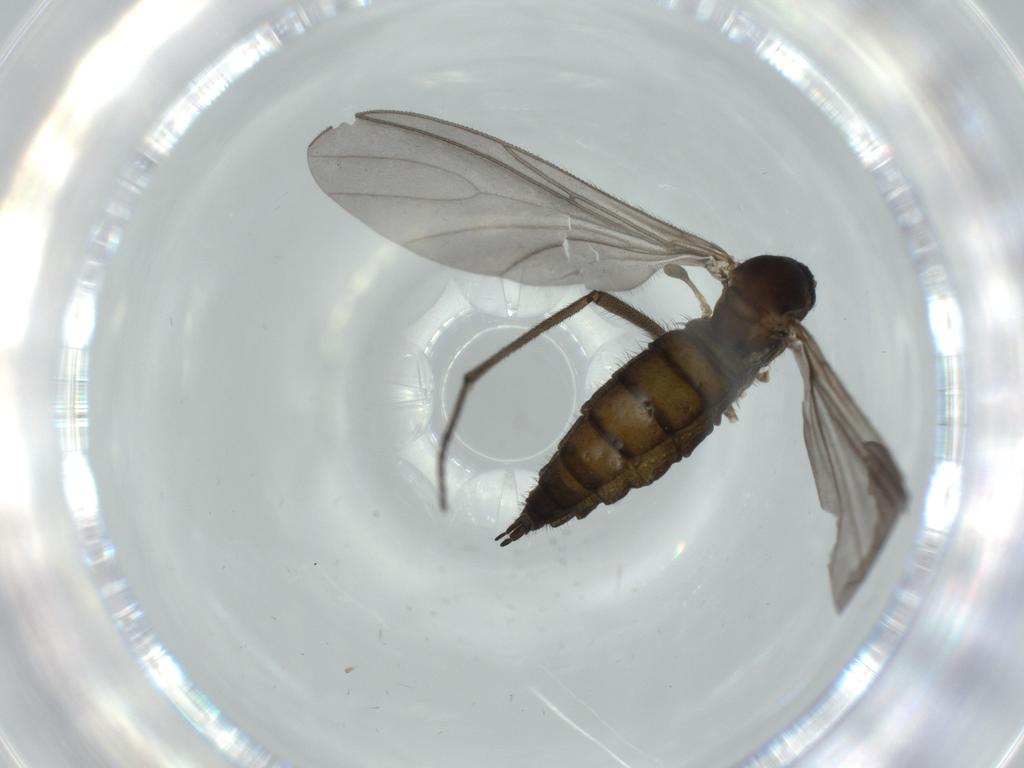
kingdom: Animalia
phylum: Arthropoda
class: Insecta
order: Diptera
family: Sciaridae
